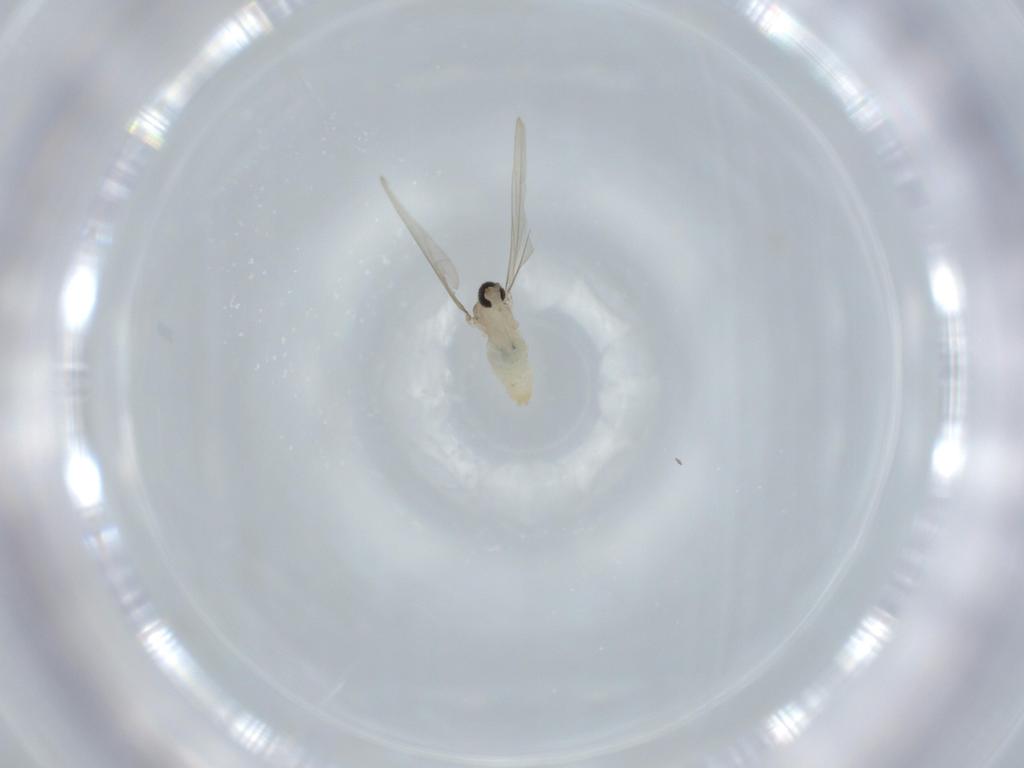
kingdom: Animalia
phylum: Arthropoda
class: Insecta
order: Diptera
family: Cecidomyiidae
